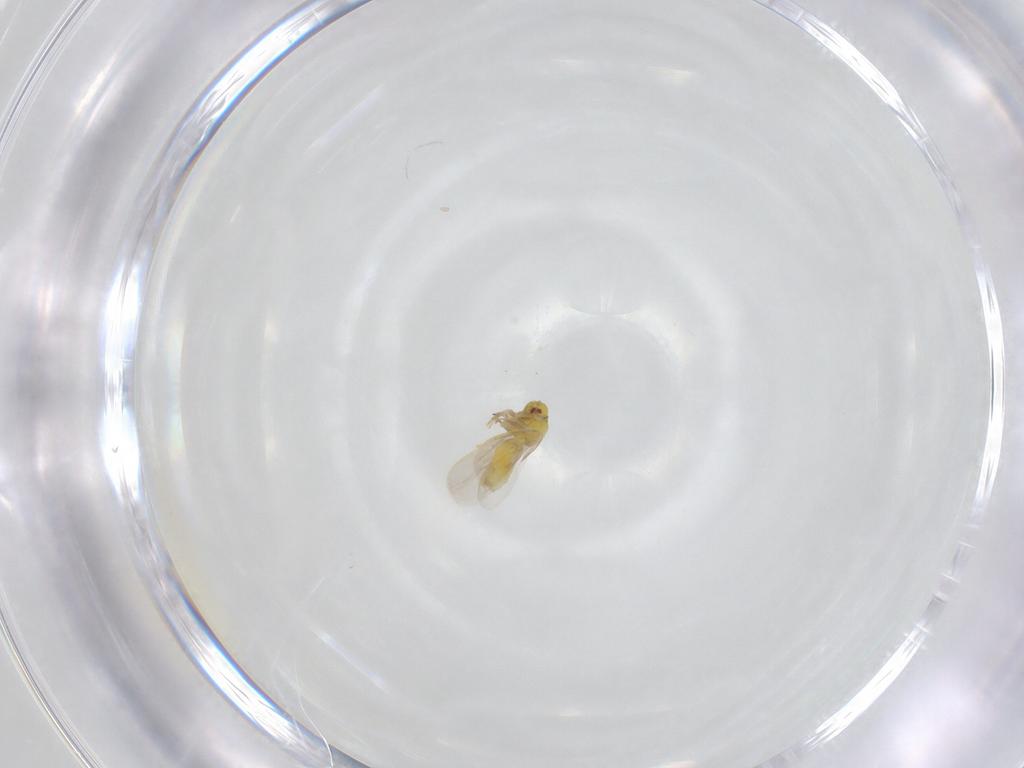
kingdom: Animalia
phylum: Arthropoda
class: Insecta
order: Hemiptera
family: Aleyrodidae
